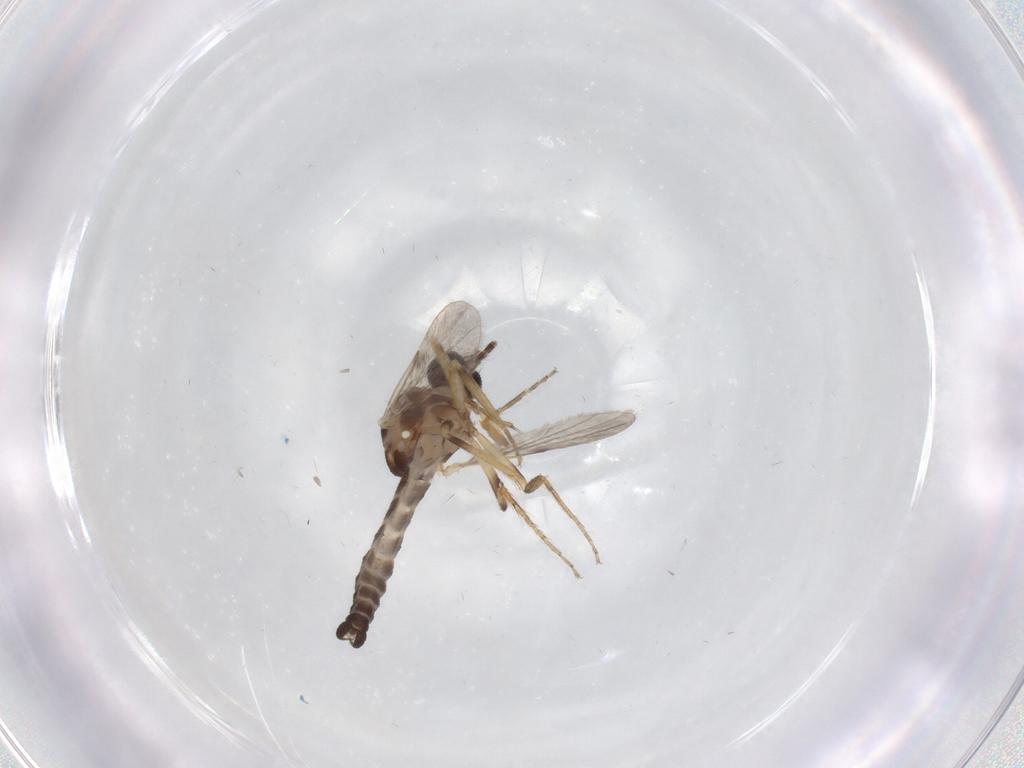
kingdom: Animalia
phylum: Arthropoda
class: Insecta
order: Diptera
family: Ceratopogonidae
